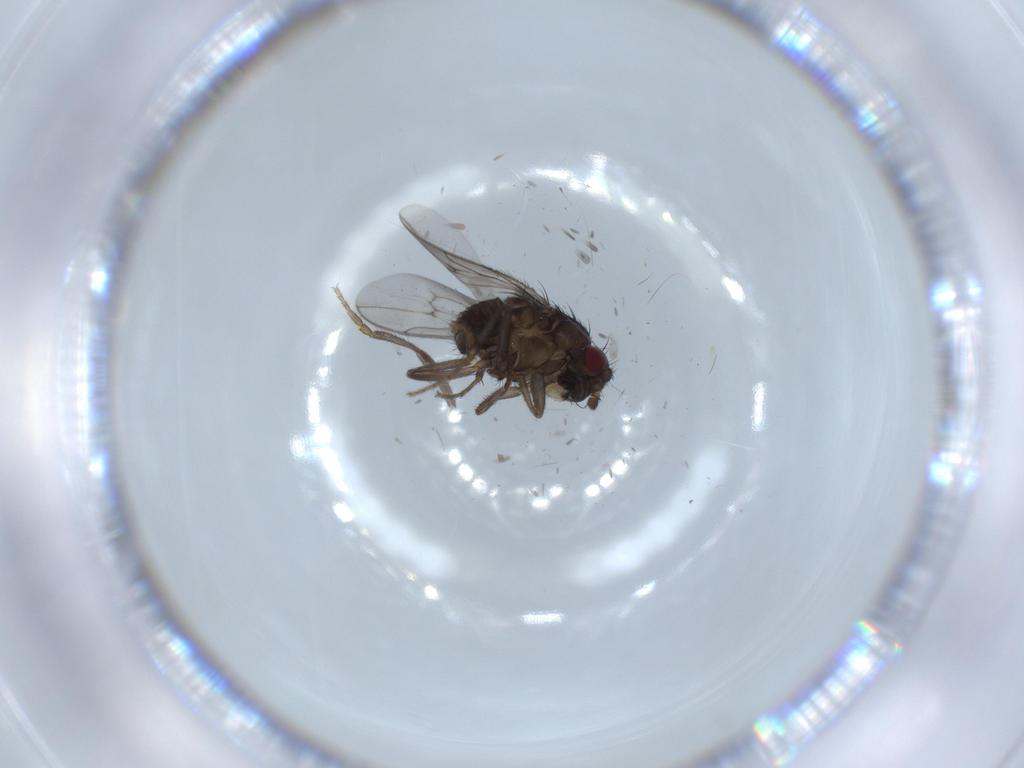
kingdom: Animalia
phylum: Arthropoda
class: Insecta
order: Diptera
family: Sphaeroceridae
